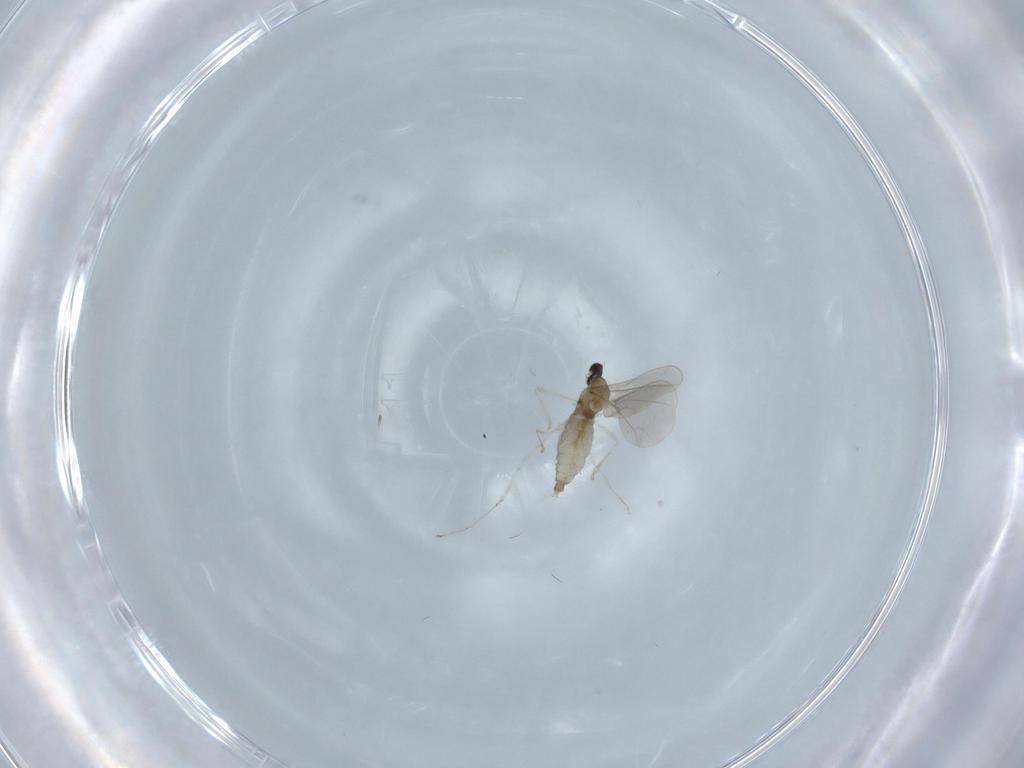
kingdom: Animalia
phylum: Arthropoda
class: Insecta
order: Diptera
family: Cecidomyiidae
